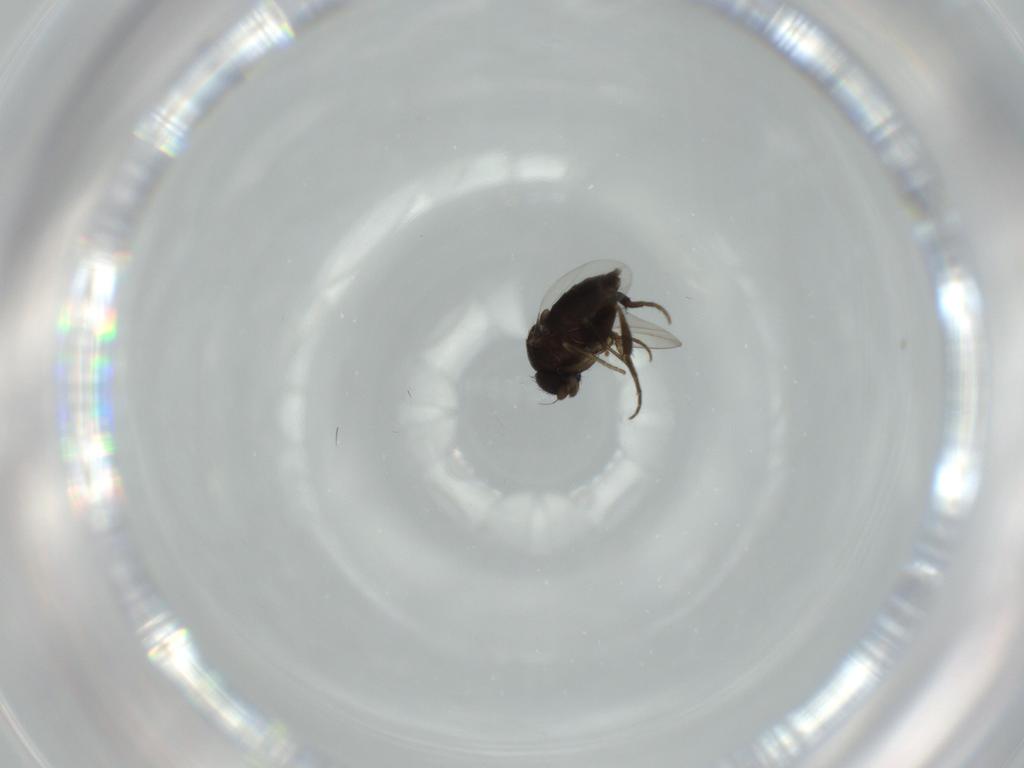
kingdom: Animalia
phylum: Arthropoda
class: Insecta
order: Diptera
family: Phoridae
